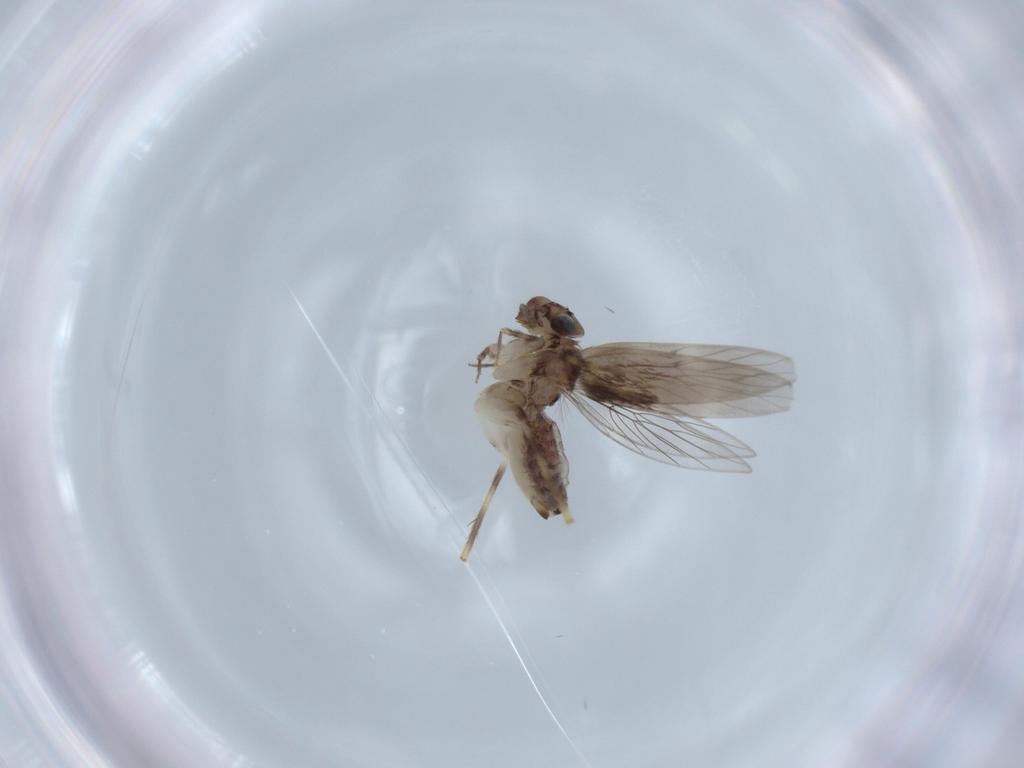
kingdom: Animalia
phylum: Arthropoda
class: Insecta
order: Psocodea
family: Lepidopsocidae
